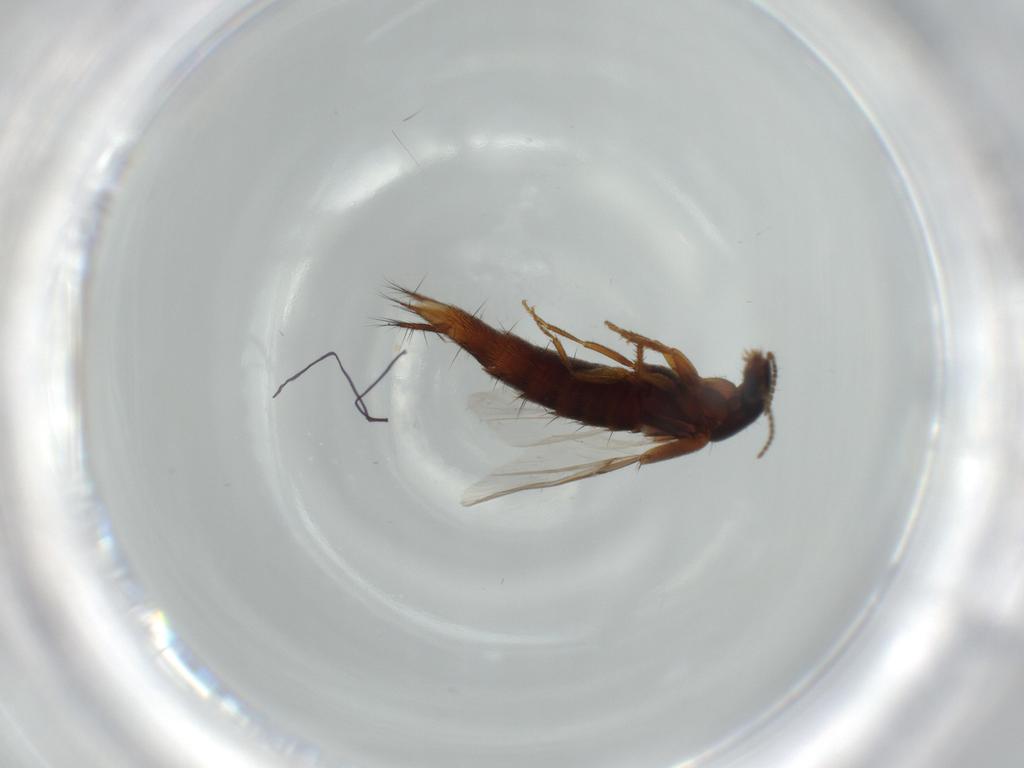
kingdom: Animalia
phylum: Arthropoda
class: Insecta
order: Coleoptera
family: Staphylinidae
